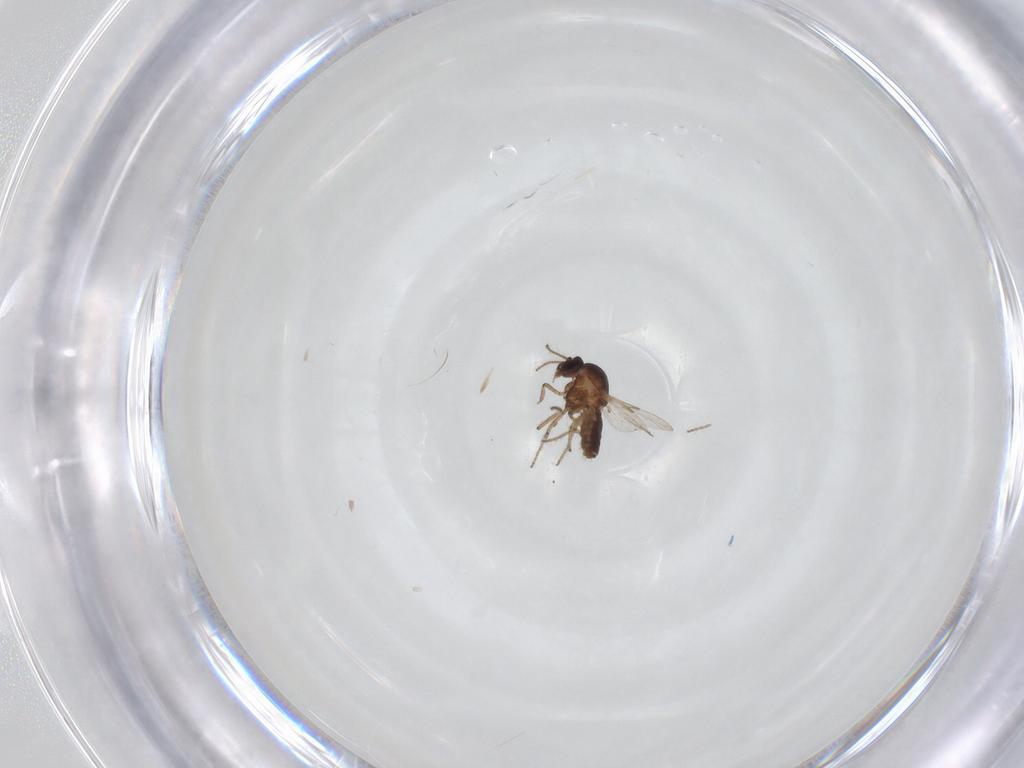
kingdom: Animalia
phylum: Arthropoda
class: Insecta
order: Diptera
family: Ceratopogonidae
